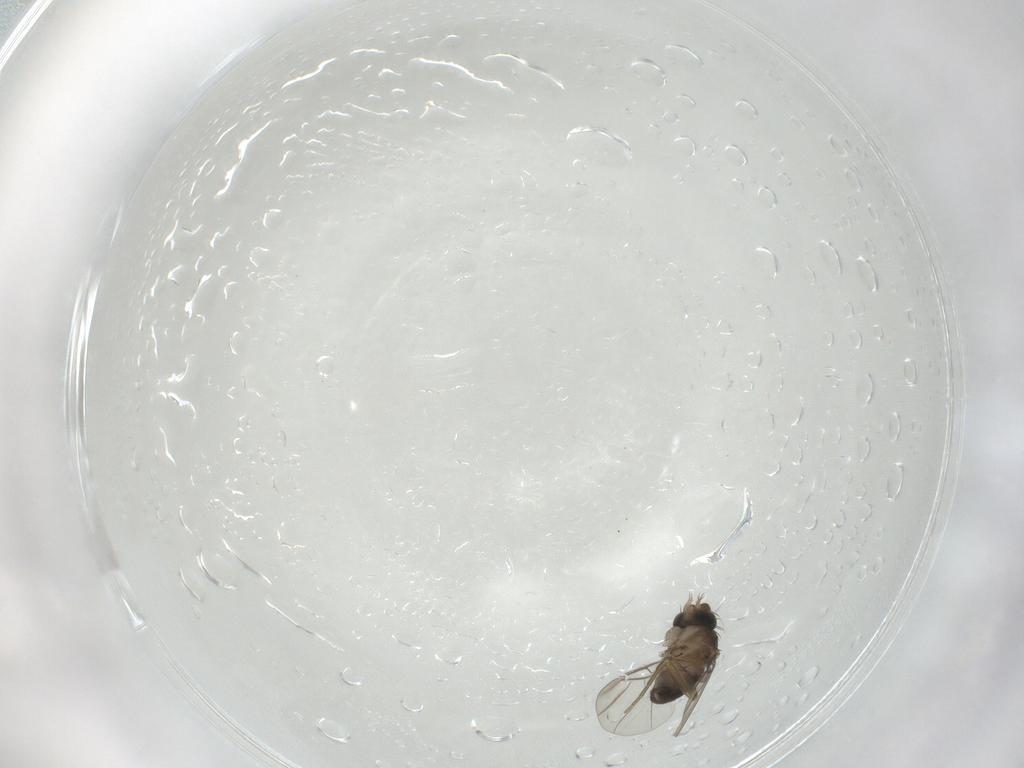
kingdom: Animalia
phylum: Arthropoda
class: Insecta
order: Diptera
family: Phoridae
